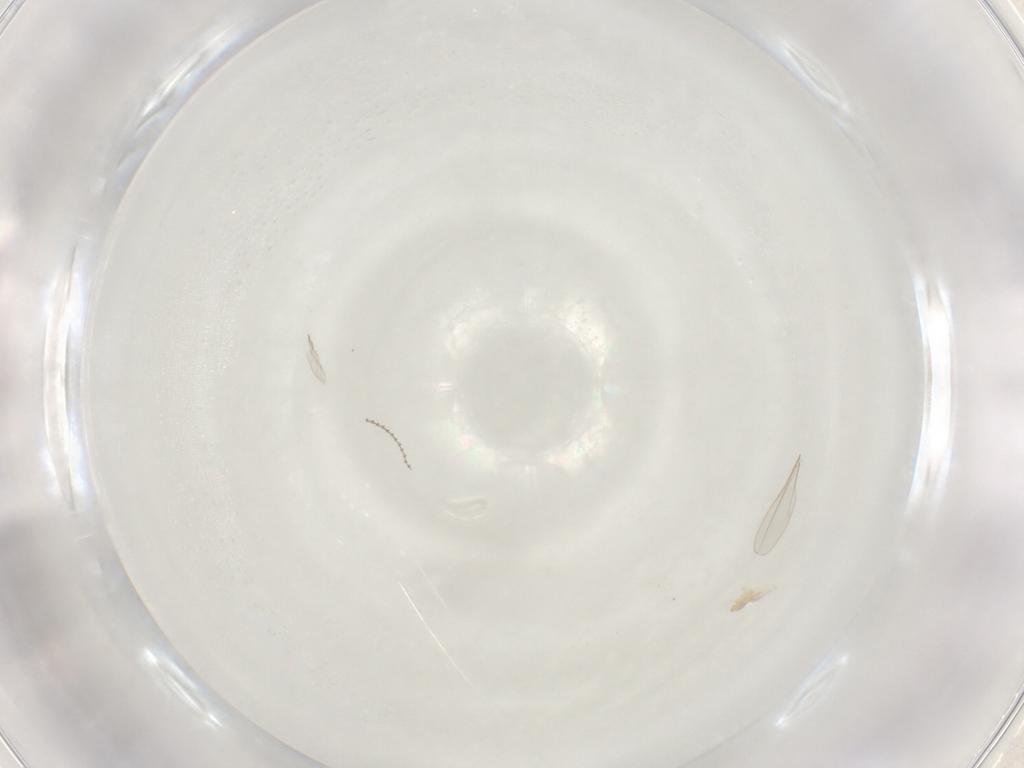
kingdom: Animalia
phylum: Arthropoda
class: Insecta
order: Diptera
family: Cecidomyiidae
